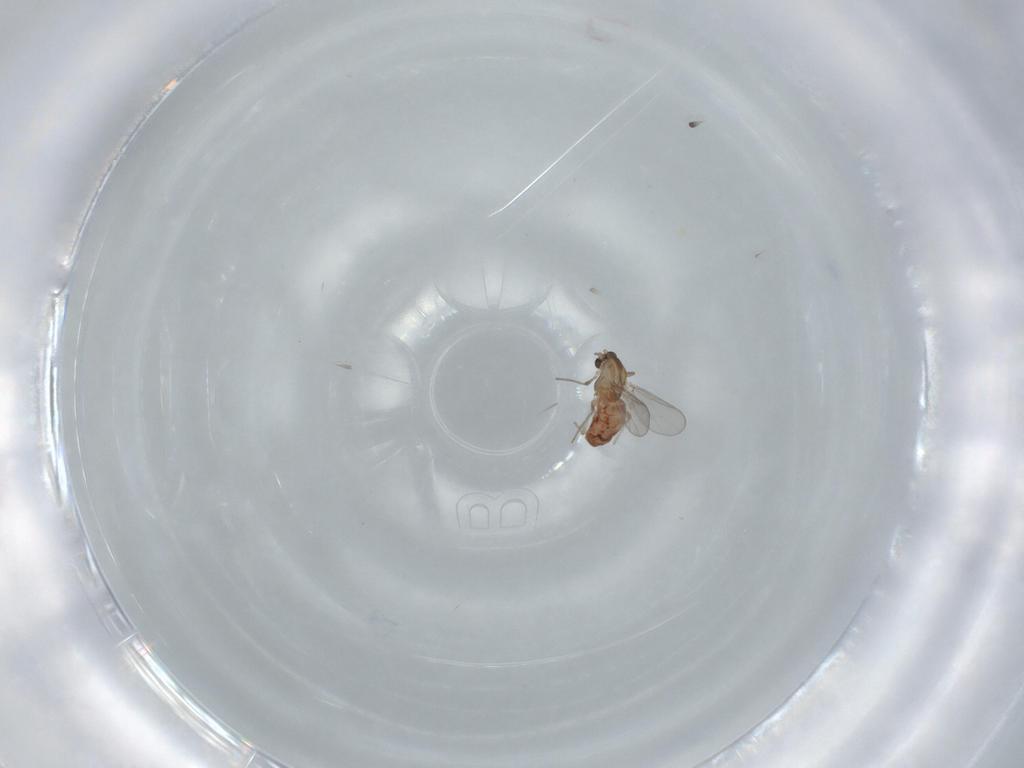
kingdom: Animalia
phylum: Arthropoda
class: Insecta
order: Diptera
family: Chironomidae
